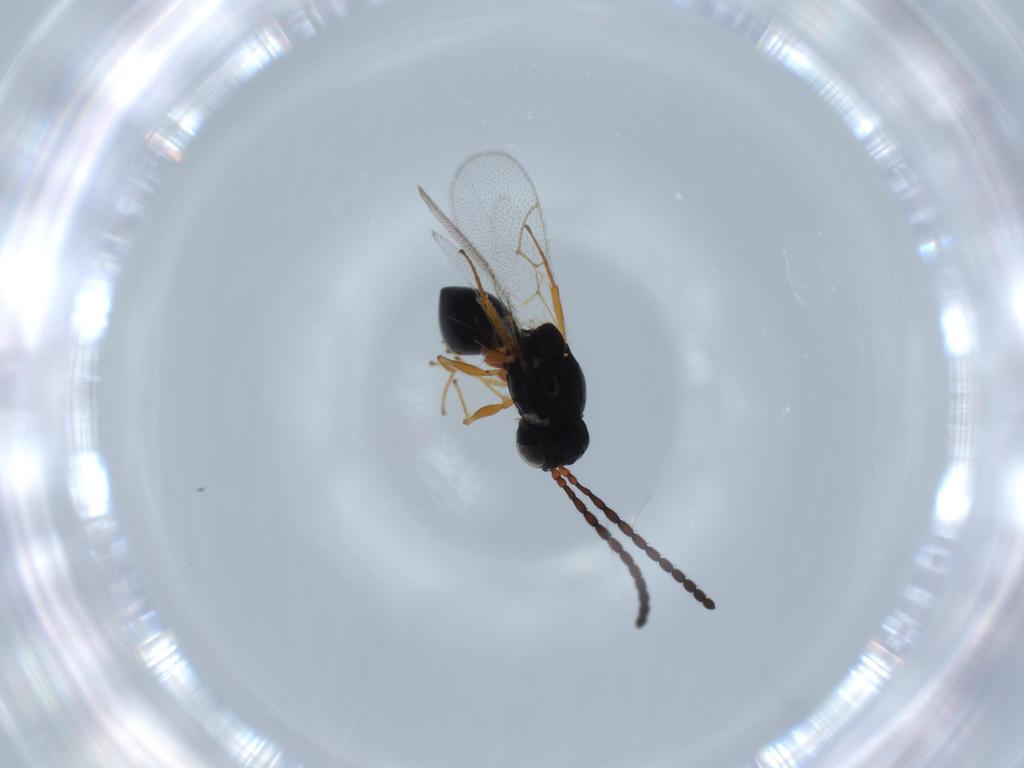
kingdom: Animalia
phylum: Arthropoda
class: Insecta
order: Hymenoptera
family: Figitidae
